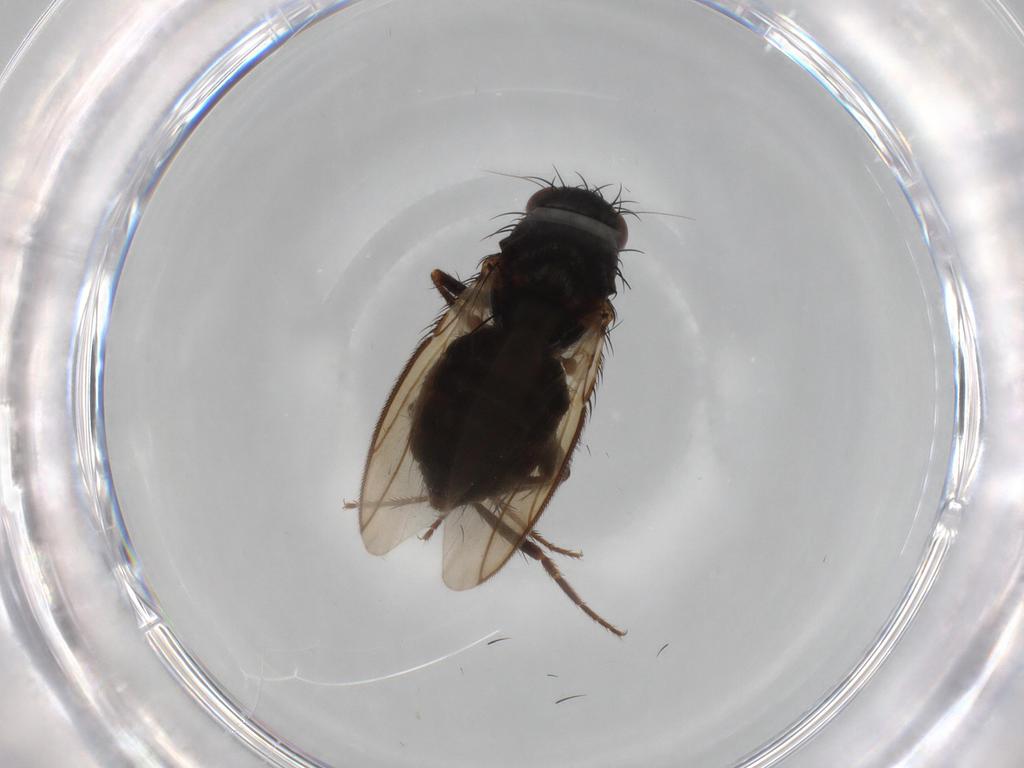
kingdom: Animalia
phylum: Arthropoda
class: Insecta
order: Diptera
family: Sphaeroceridae
